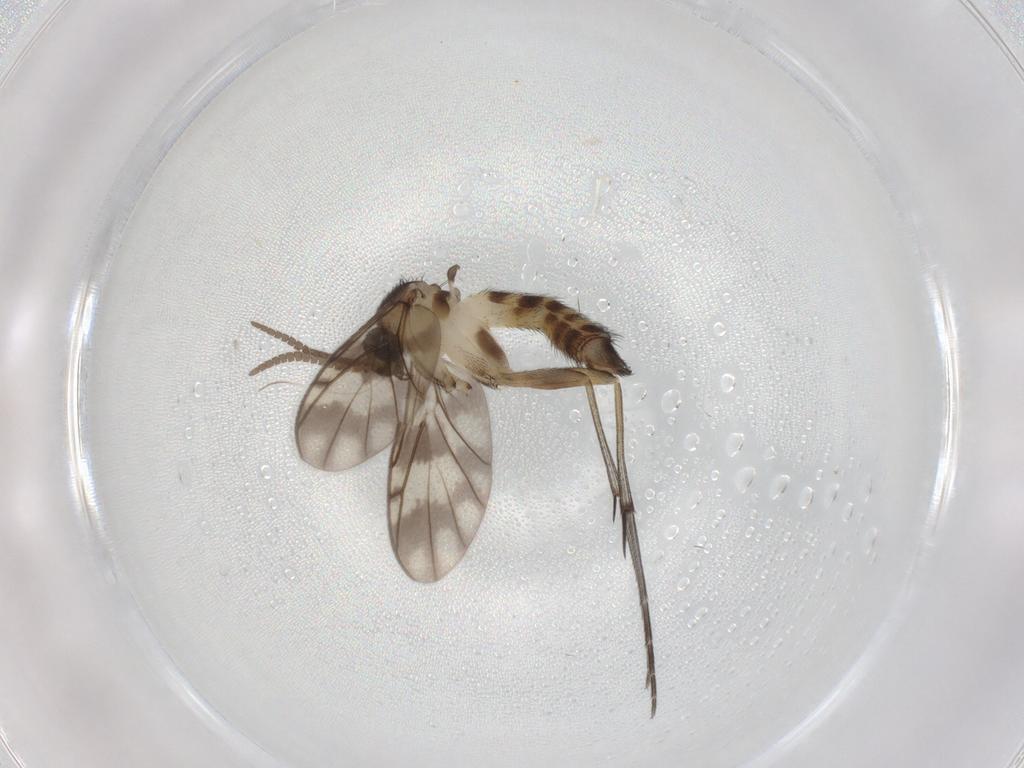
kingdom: Animalia
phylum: Arthropoda
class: Insecta
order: Diptera
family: Keroplatidae
